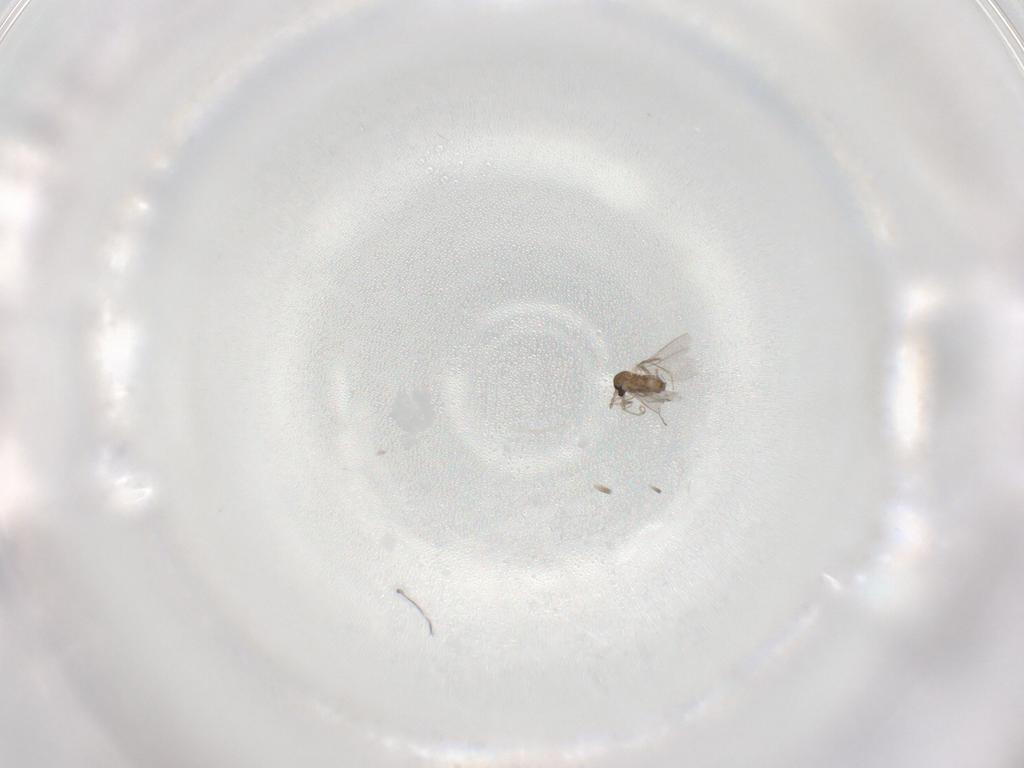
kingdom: Animalia
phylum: Arthropoda
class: Insecta
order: Diptera
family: Cecidomyiidae
